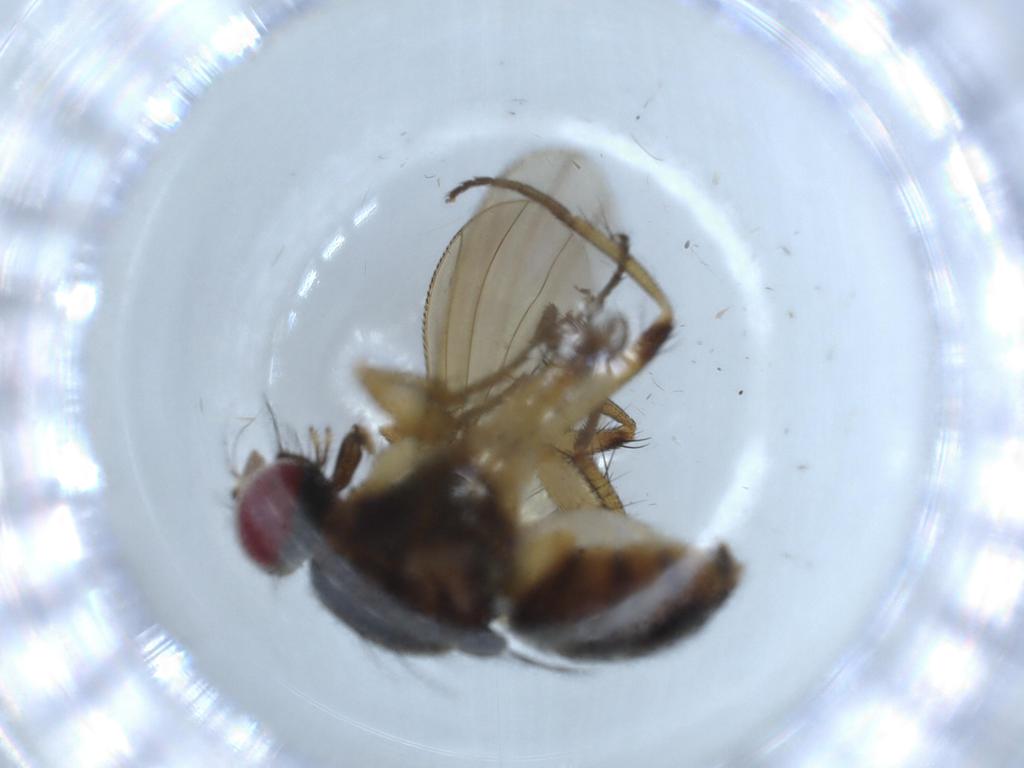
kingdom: Animalia
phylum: Arthropoda
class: Insecta
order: Diptera
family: Muscidae
